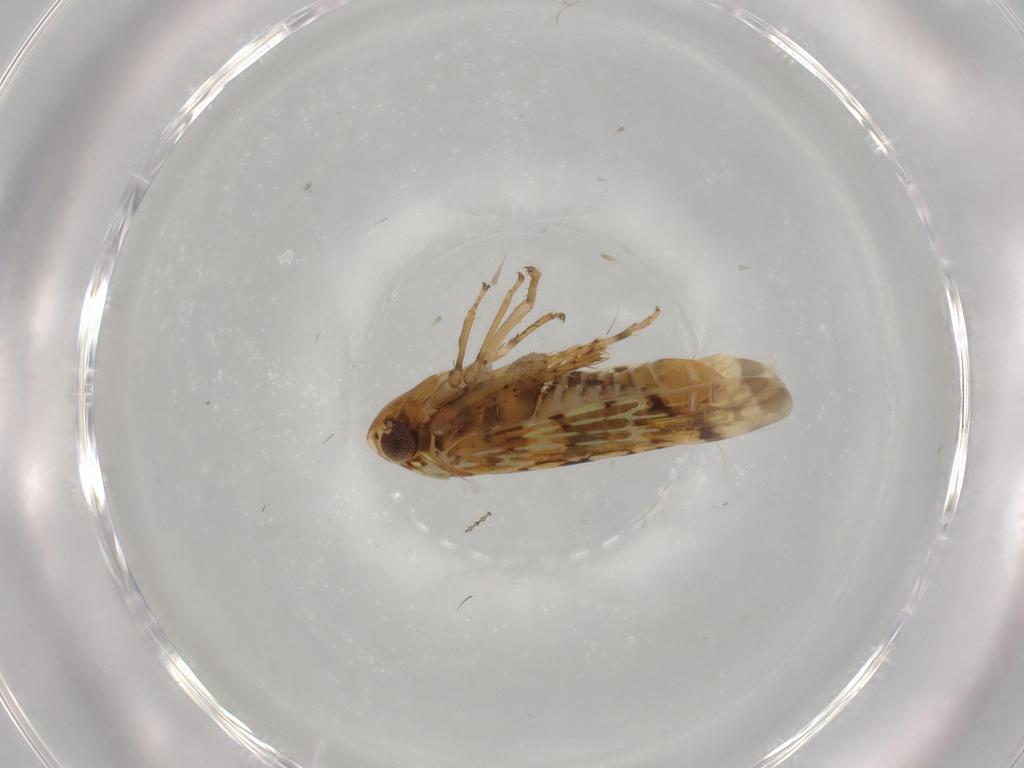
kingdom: Animalia
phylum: Arthropoda
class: Insecta
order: Hemiptera
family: Cicadellidae
